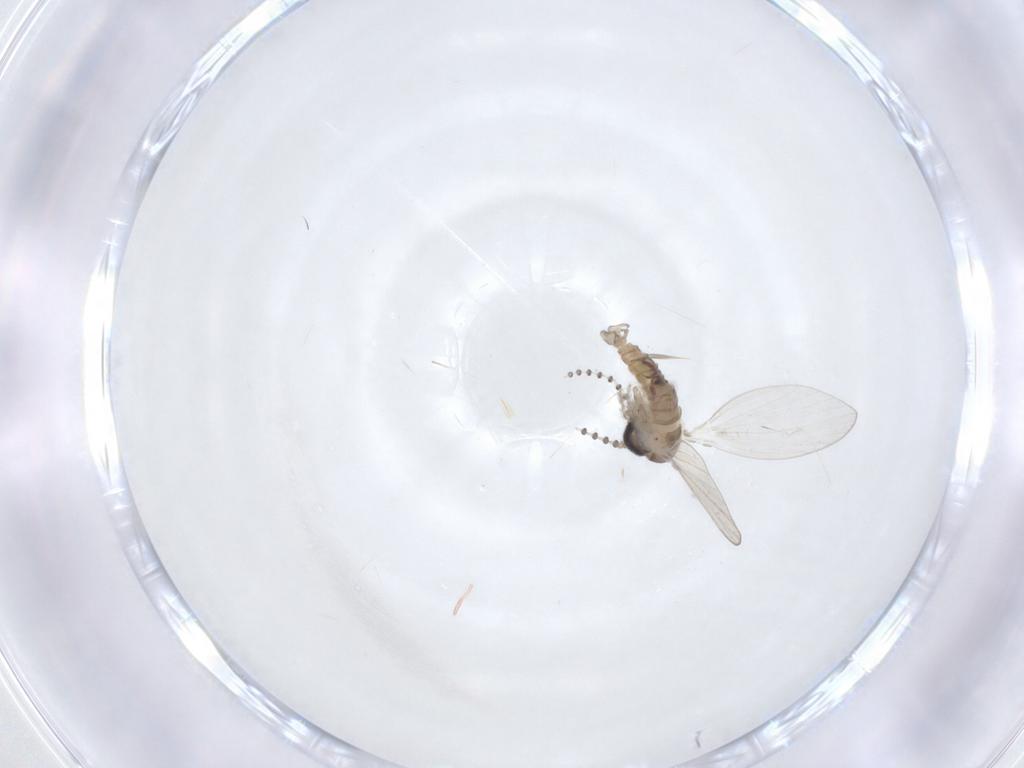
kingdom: Animalia
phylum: Arthropoda
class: Insecta
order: Diptera
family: Psychodidae
